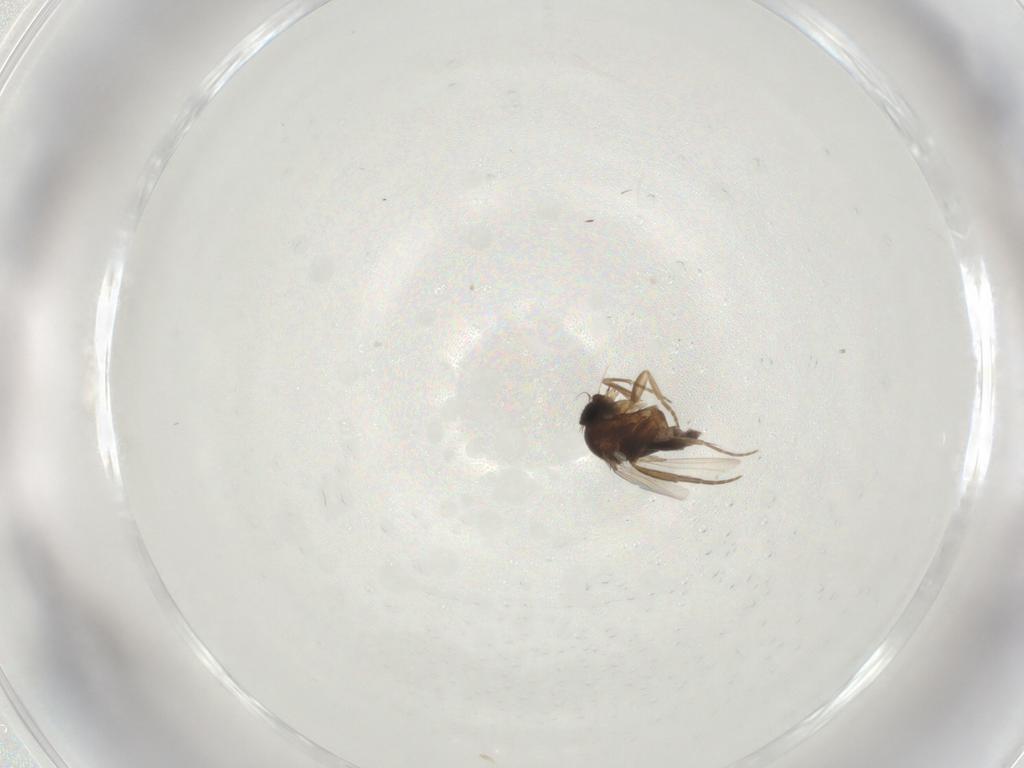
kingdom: Animalia
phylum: Arthropoda
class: Insecta
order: Diptera
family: Phoridae
